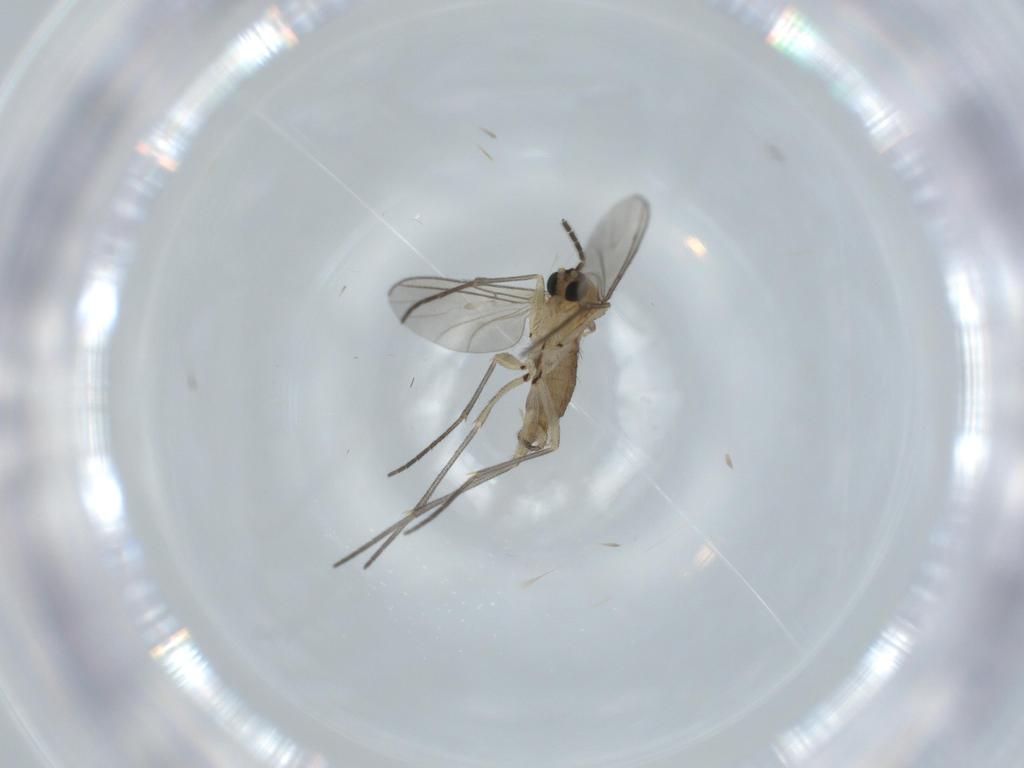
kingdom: Animalia
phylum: Arthropoda
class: Insecta
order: Diptera
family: Sciaridae
